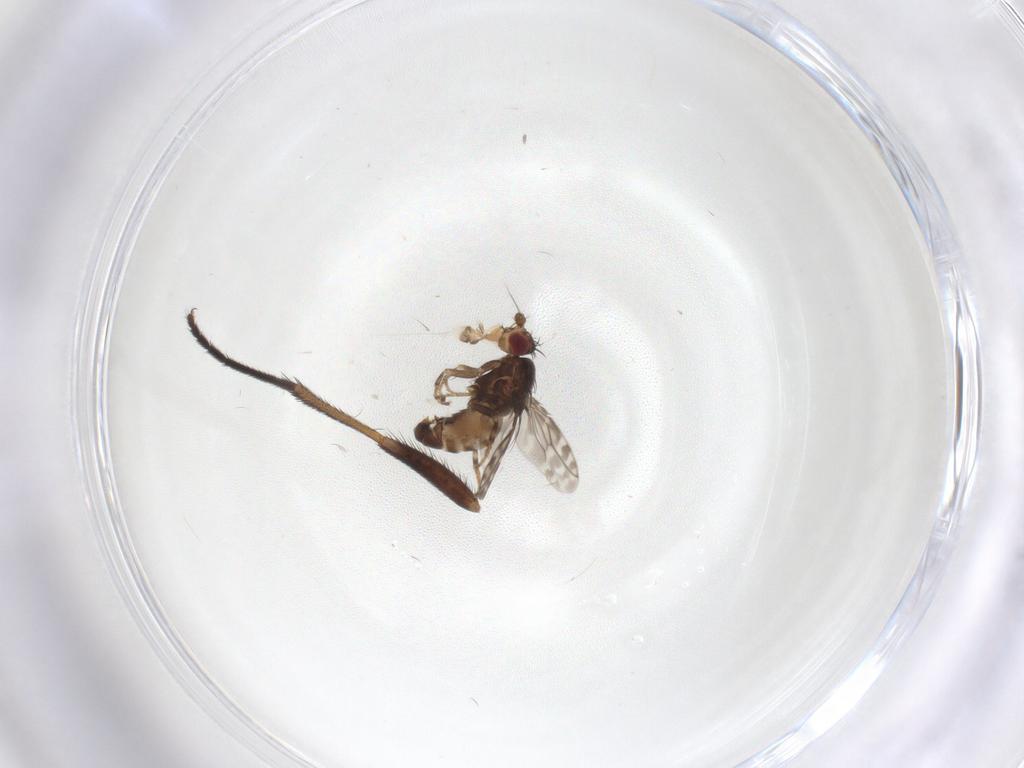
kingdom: Animalia
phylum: Arthropoda
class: Insecta
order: Diptera
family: Sphaeroceridae
